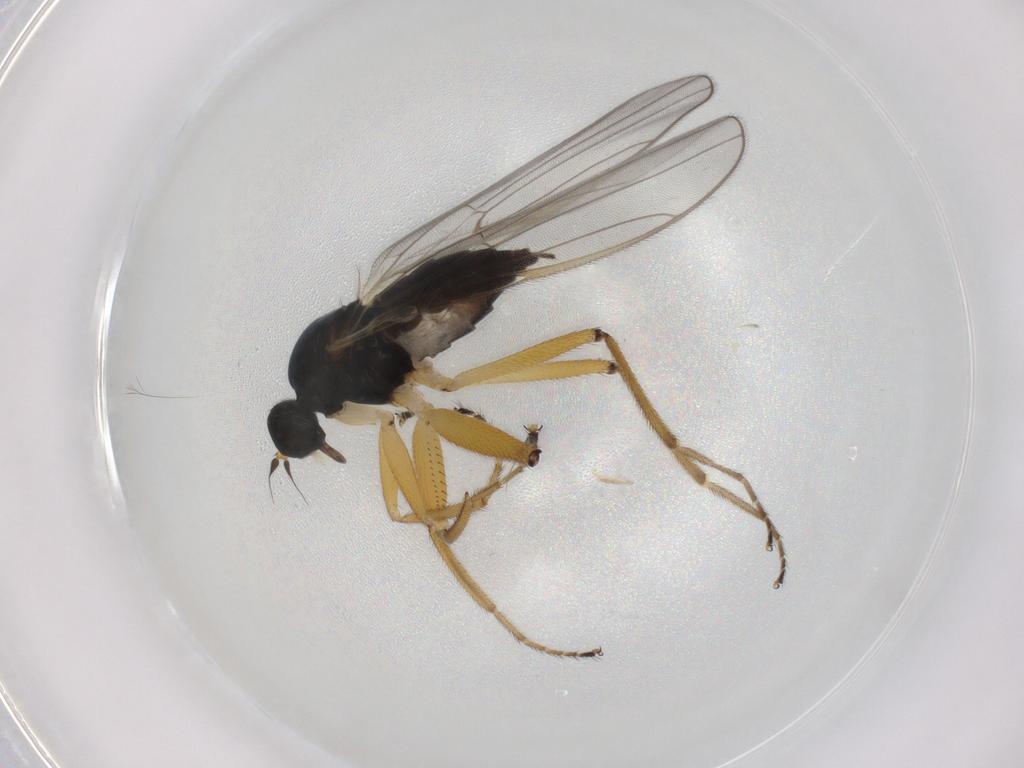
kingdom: Animalia
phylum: Arthropoda
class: Insecta
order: Diptera
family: Hybotidae
